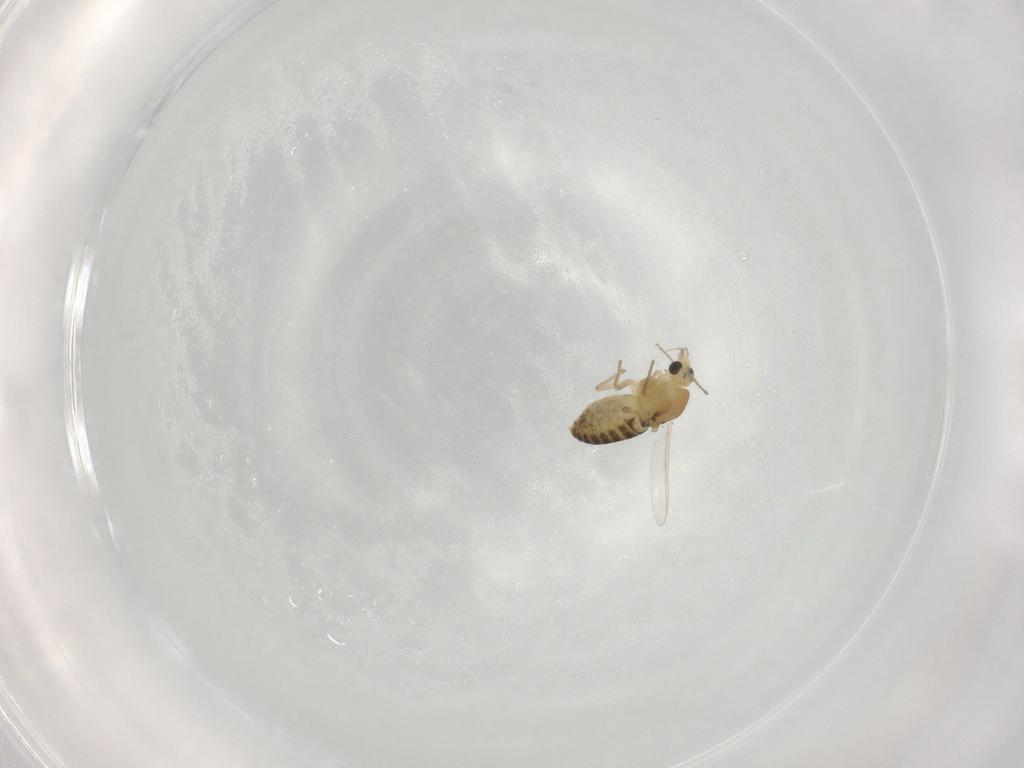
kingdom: Animalia
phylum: Arthropoda
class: Insecta
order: Diptera
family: Chironomidae
